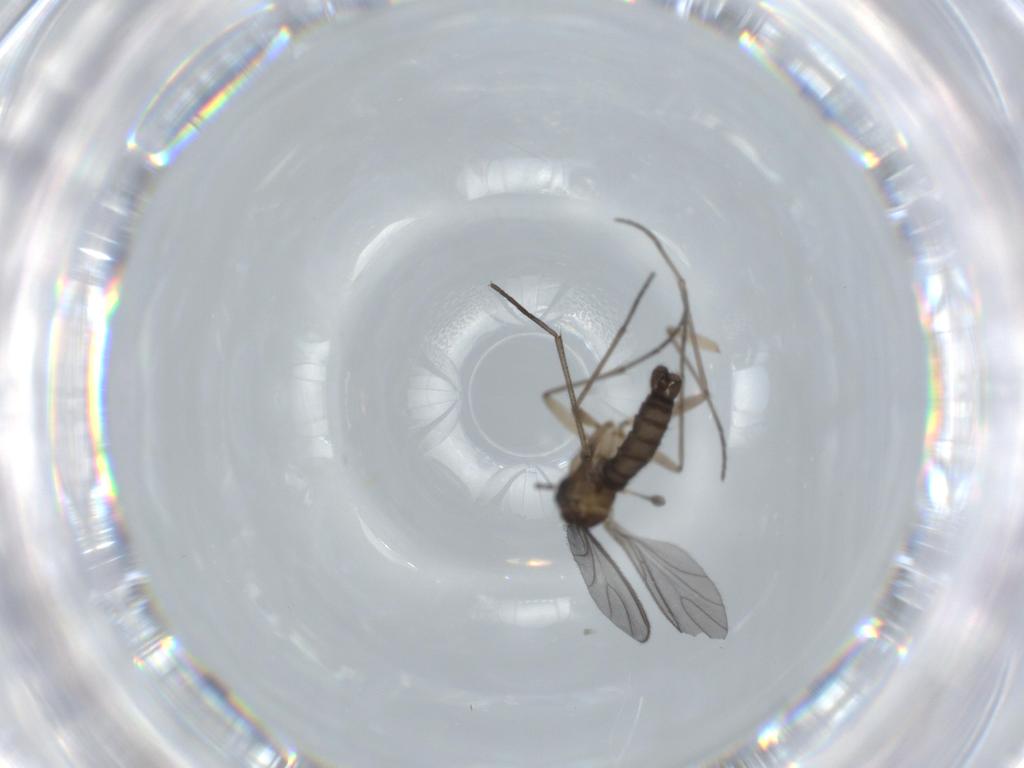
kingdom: Animalia
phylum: Arthropoda
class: Insecta
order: Diptera
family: Sciaridae
